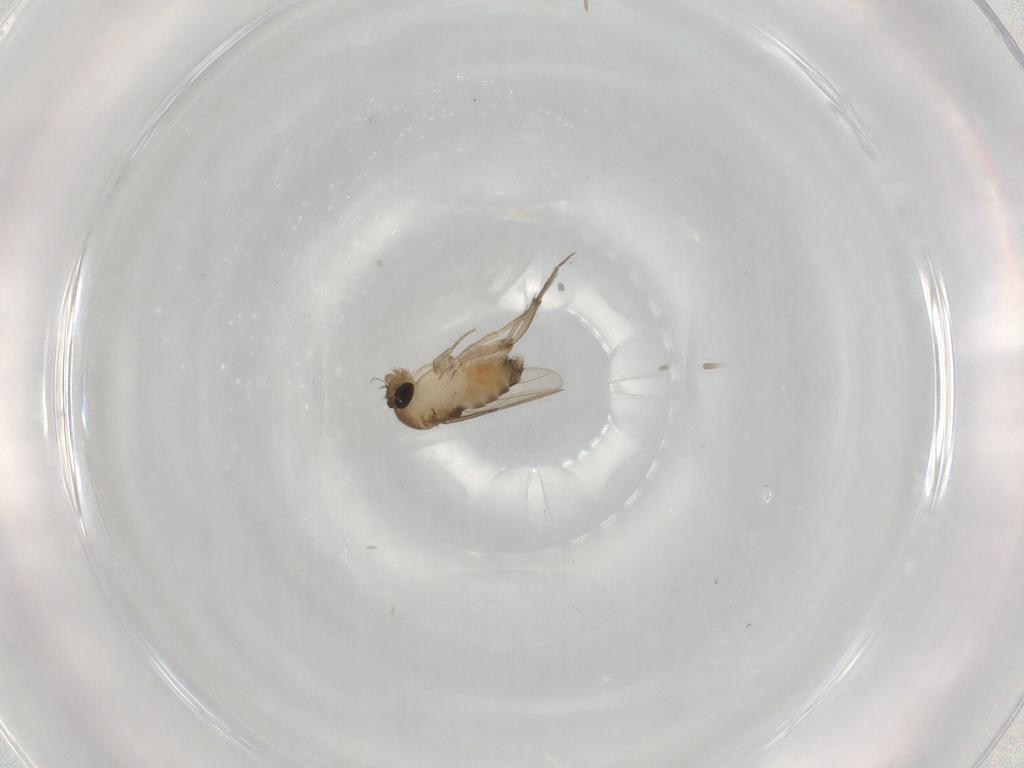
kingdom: Animalia
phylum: Arthropoda
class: Insecta
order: Diptera
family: Phoridae
